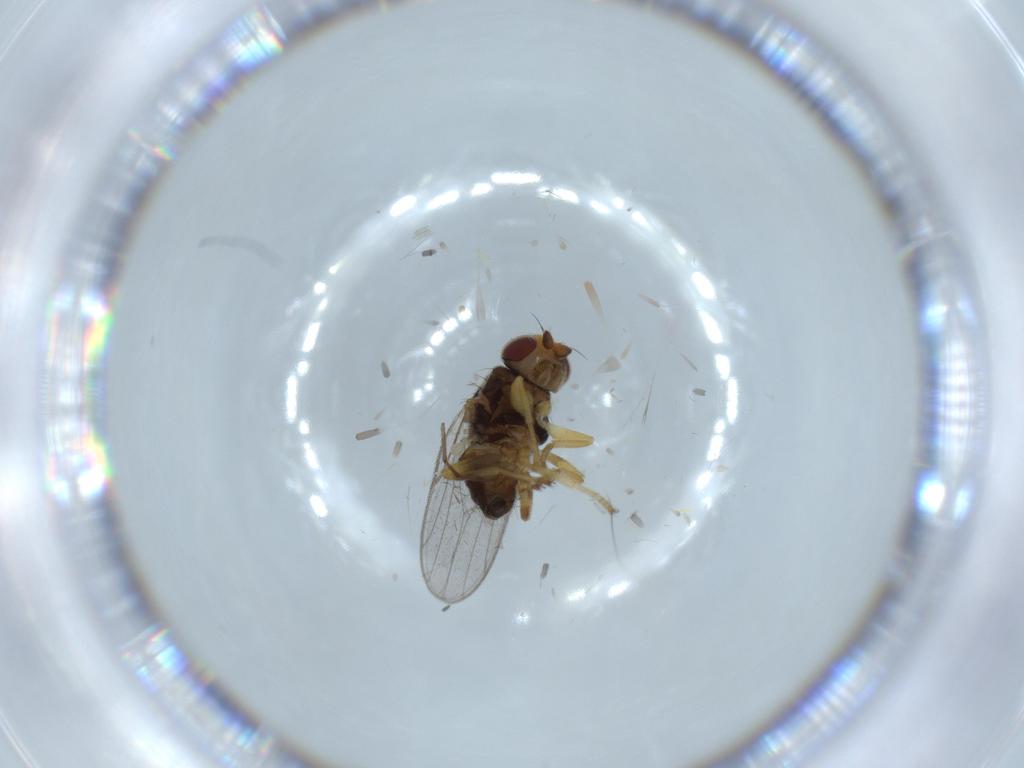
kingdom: Animalia
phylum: Arthropoda
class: Insecta
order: Diptera
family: Chloropidae
